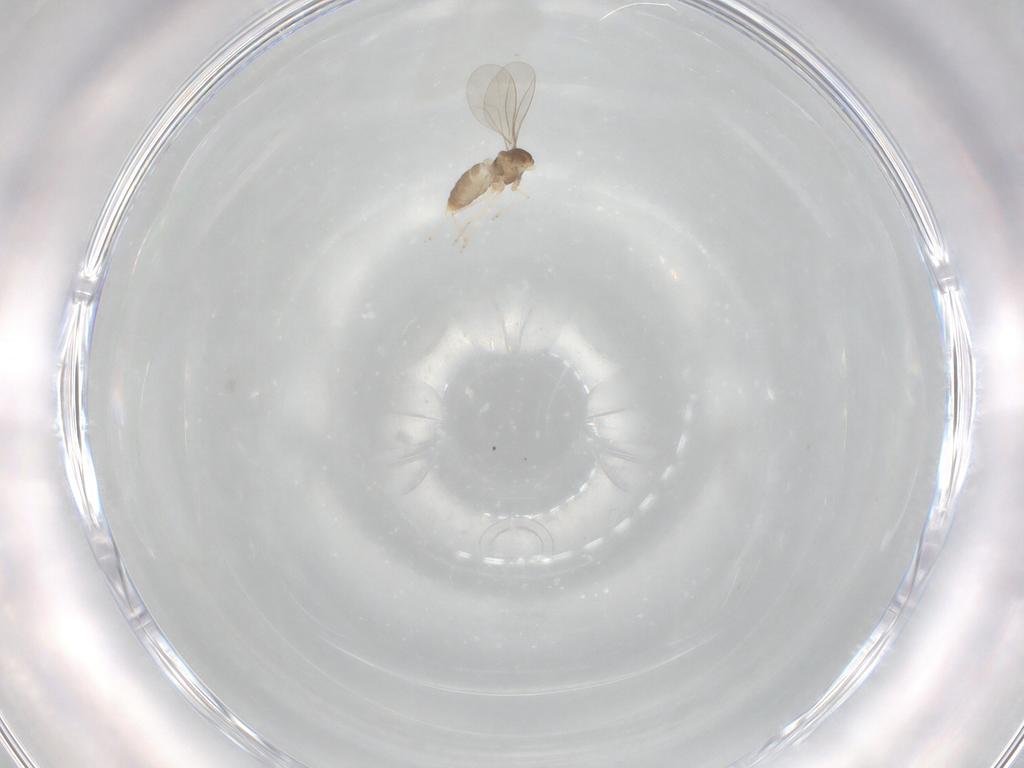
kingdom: Animalia
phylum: Arthropoda
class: Insecta
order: Diptera
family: Cecidomyiidae
